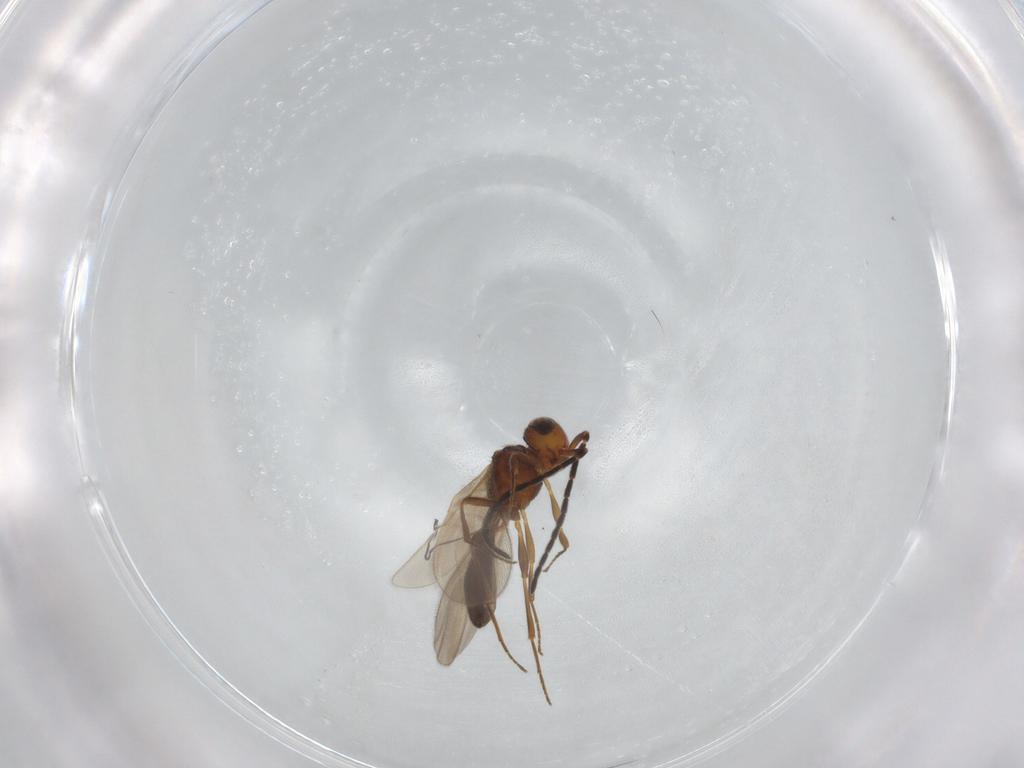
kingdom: Animalia
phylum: Arthropoda
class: Insecta
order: Hymenoptera
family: Scelionidae
